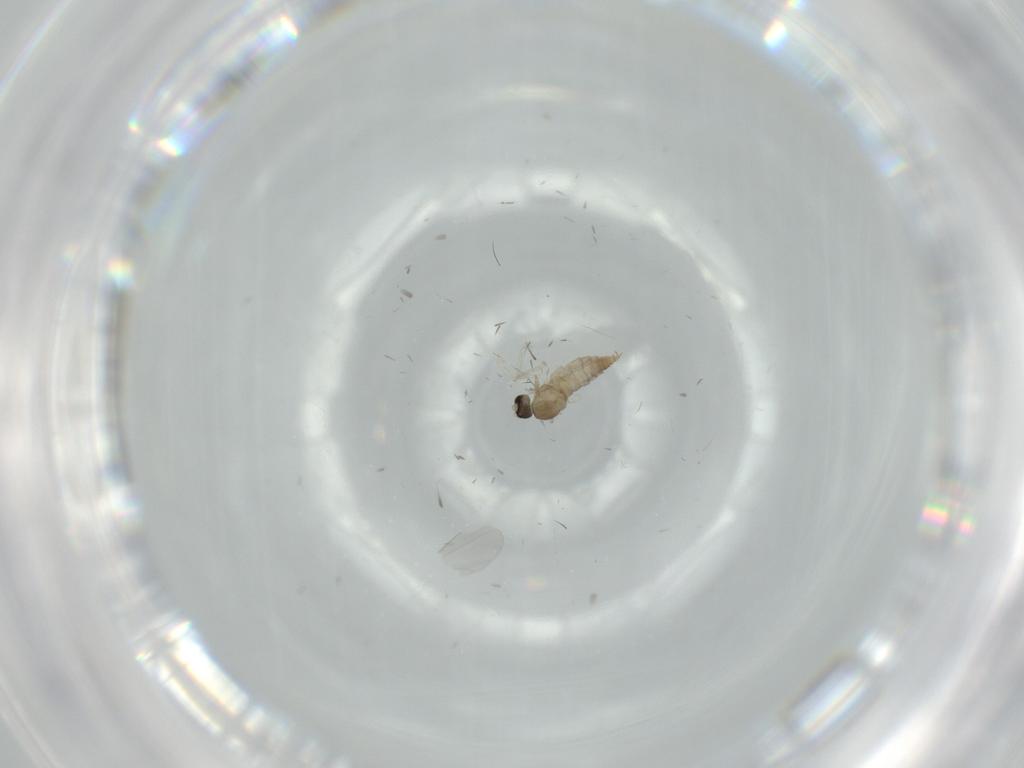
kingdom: Animalia
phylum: Arthropoda
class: Insecta
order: Diptera
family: Cecidomyiidae
